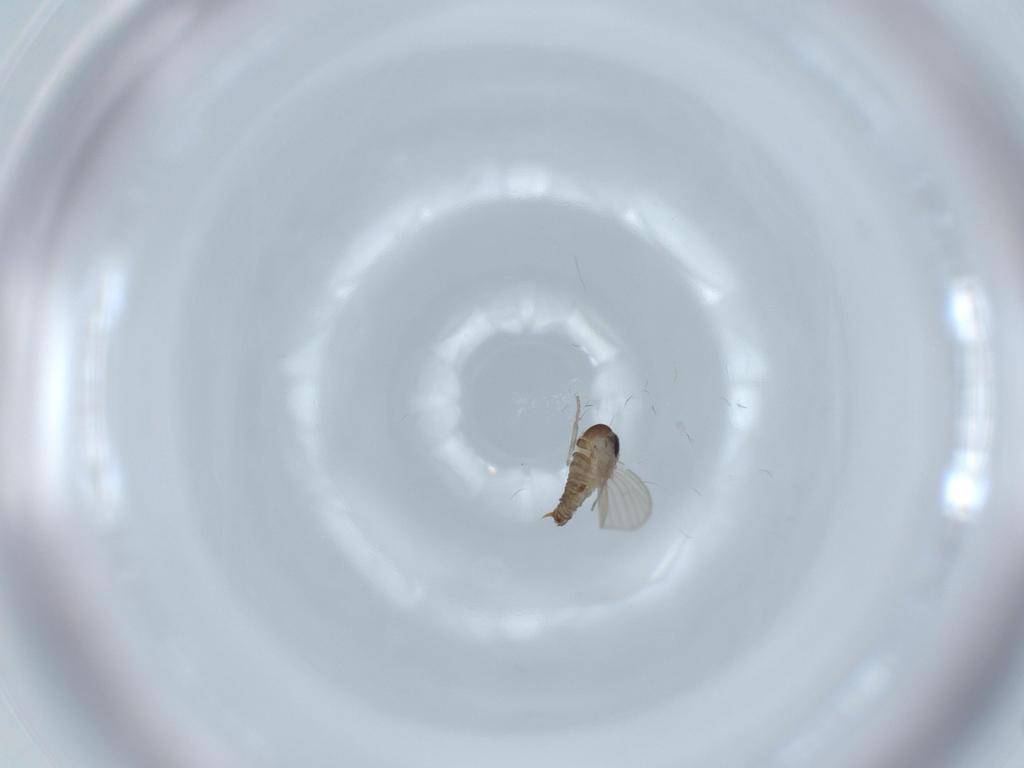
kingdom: Animalia
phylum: Arthropoda
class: Insecta
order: Diptera
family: Psychodidae
